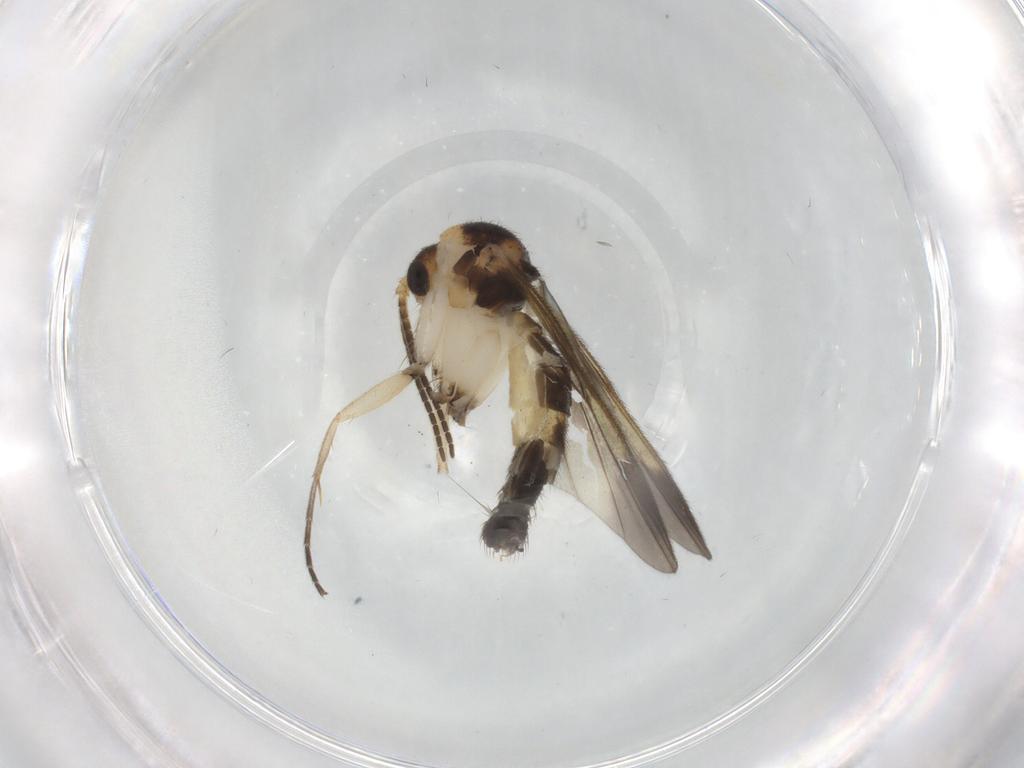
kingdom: Animalia
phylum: Arthropoda
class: Insecta
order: Diptera
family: Mycetophilidae
